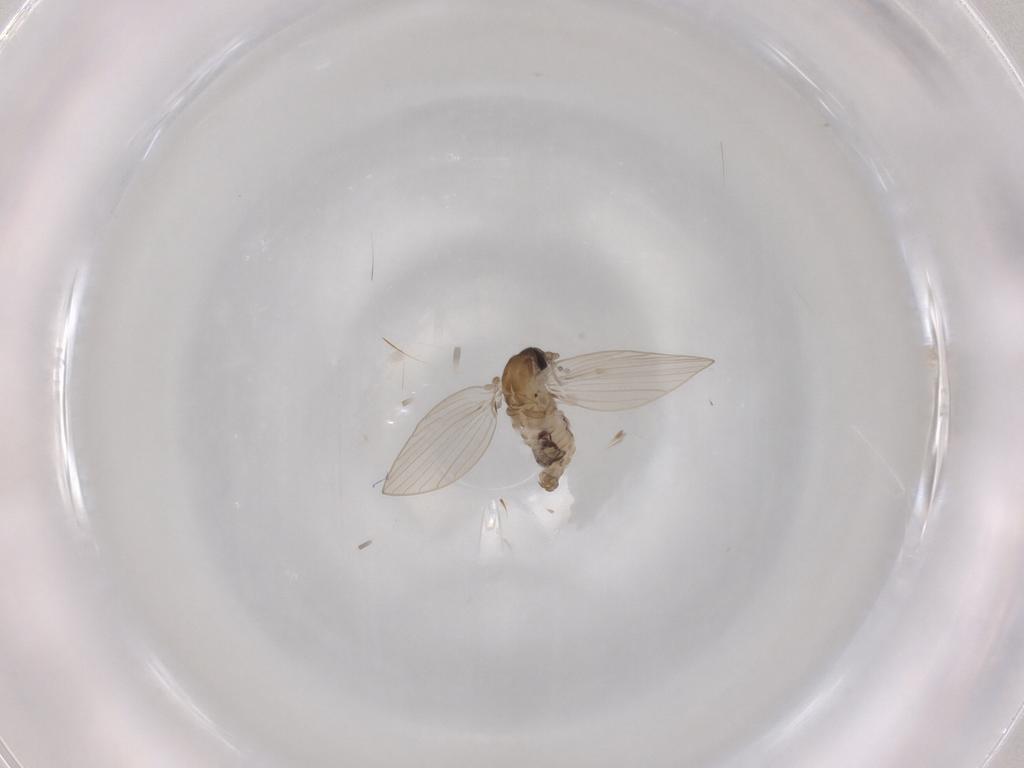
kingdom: Animalia
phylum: Arthropoda
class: Insecta
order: Diptera
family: Psychodidae
